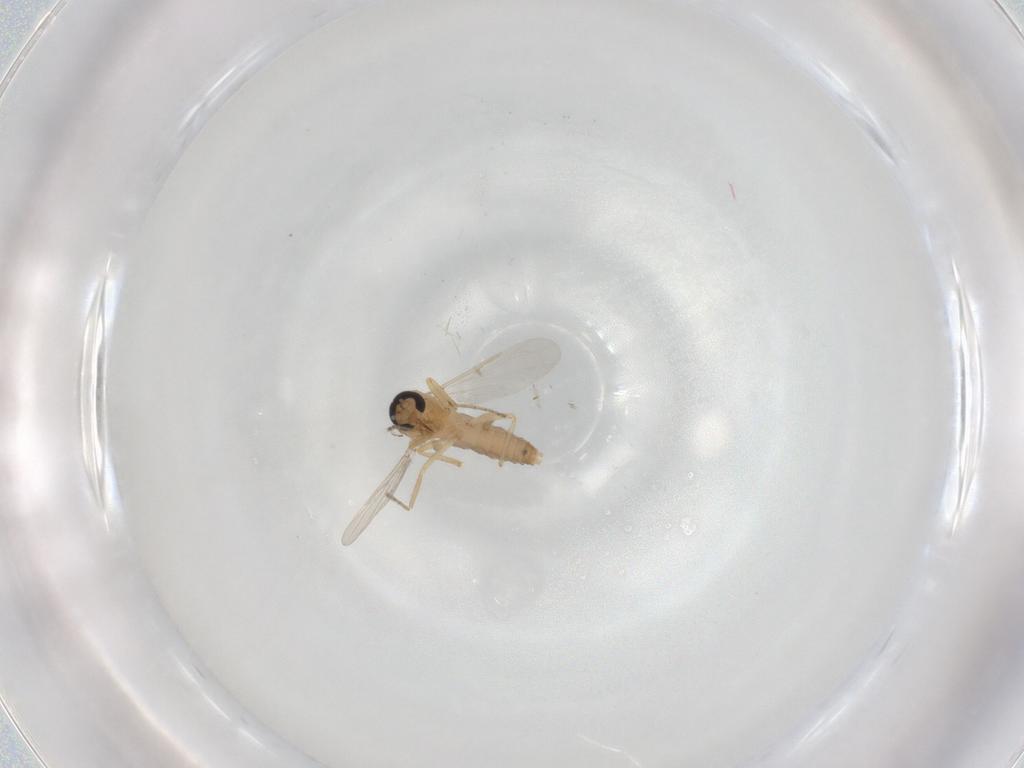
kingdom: Animalia
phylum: Arthropoda
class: Insecta
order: Diptera
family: Ceratopogonidae
